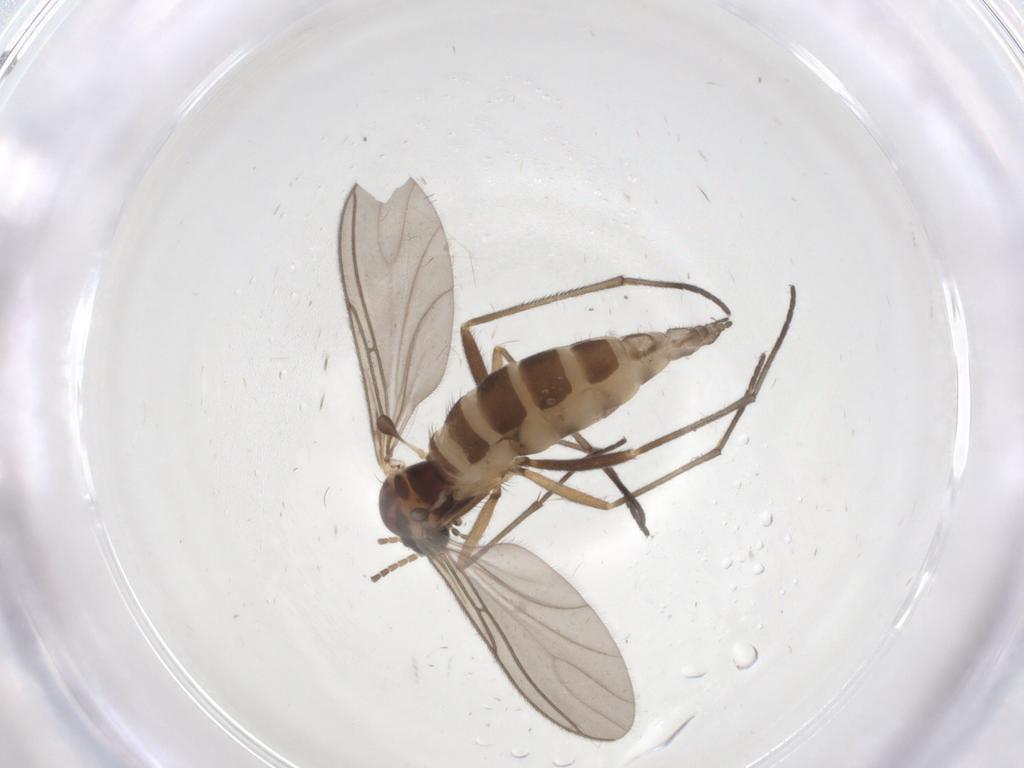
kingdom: Animalia
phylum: Arthropoda
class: Insecta
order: Diptera
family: Sciaridae
